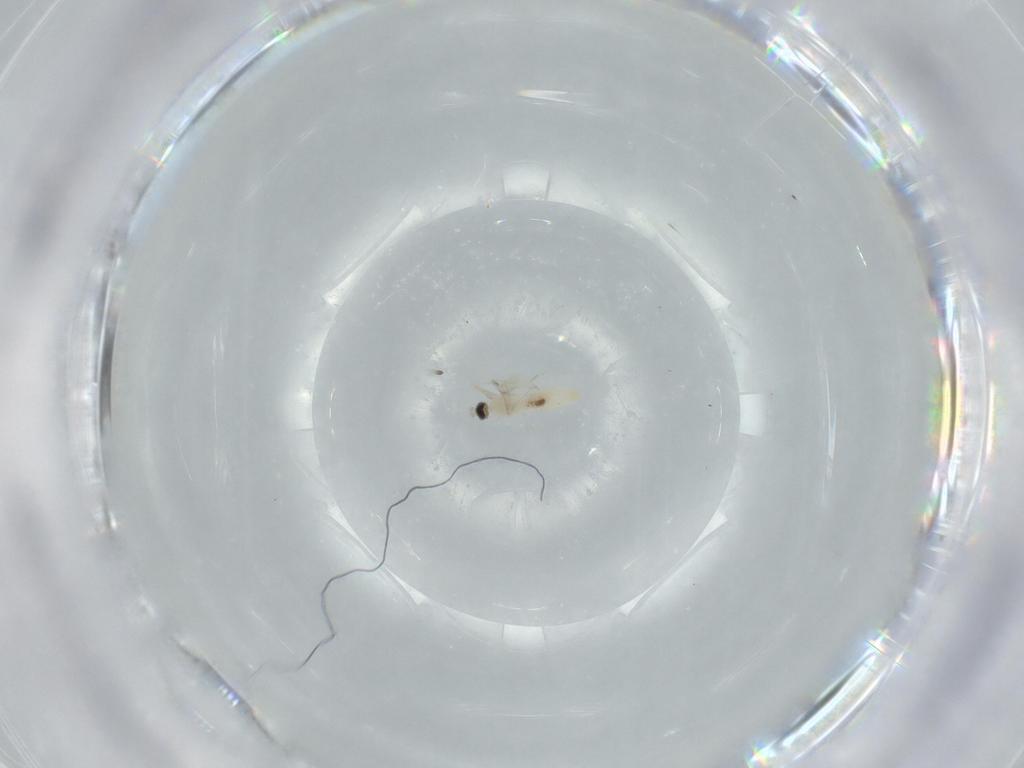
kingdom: Animalia
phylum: Arthropoda
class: Insecta
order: Diptera
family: Cecidomyiidae
